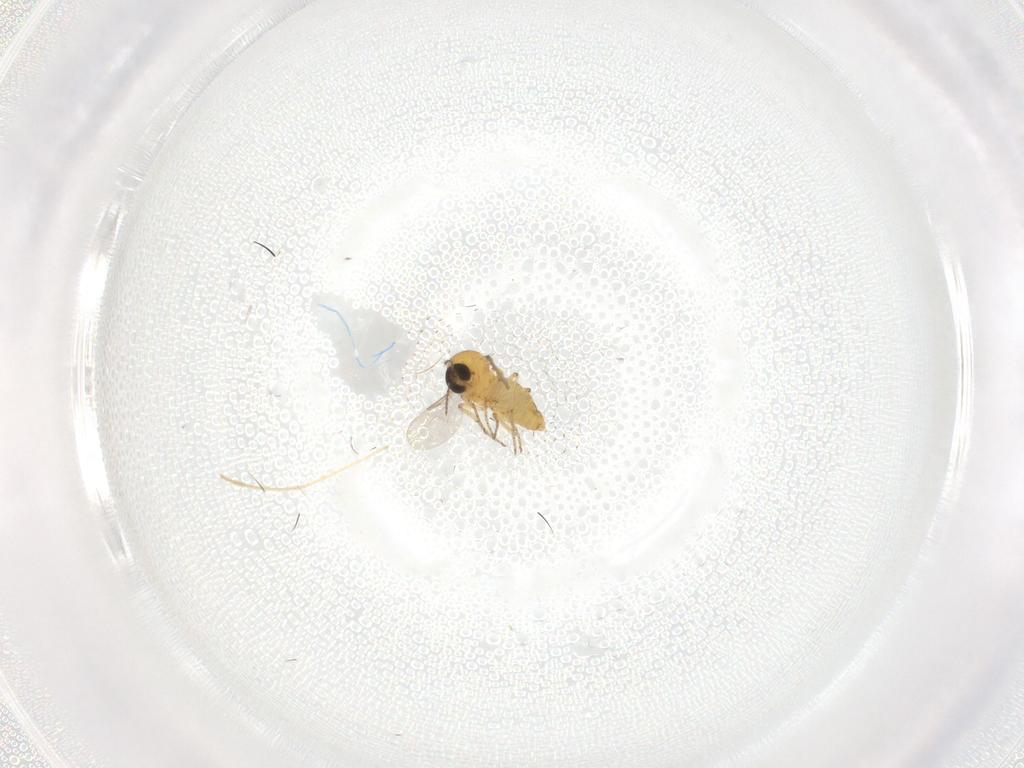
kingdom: Animalia
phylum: Arthropoda
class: Insecta
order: Diptera
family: Chironomidae
